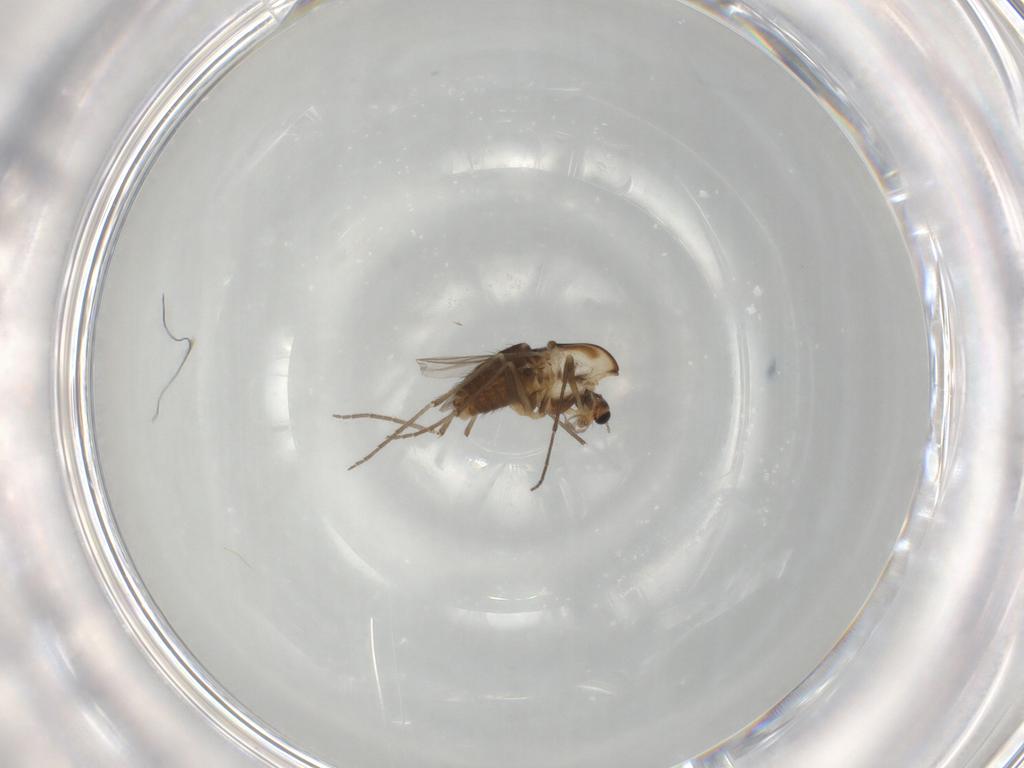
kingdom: Animalia
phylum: Arthropoda
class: Insecta
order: Diptera
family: Chironomidae
